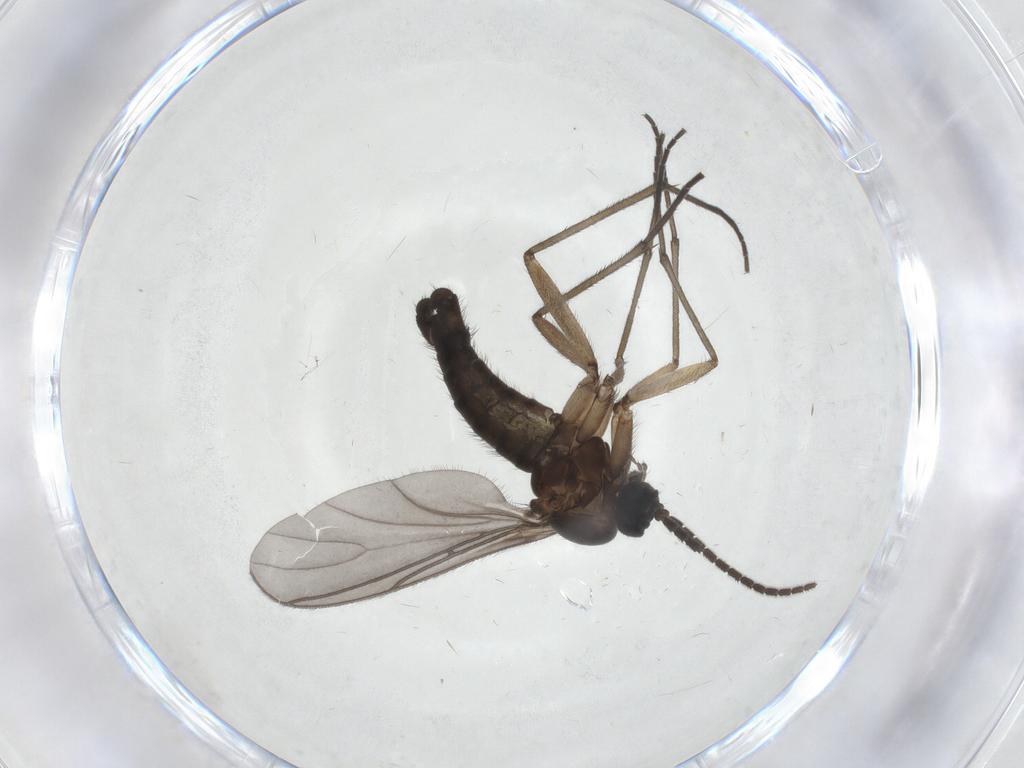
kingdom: Animalia
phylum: Arthropoda
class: Insecta
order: Diptera
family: Sciaridae
